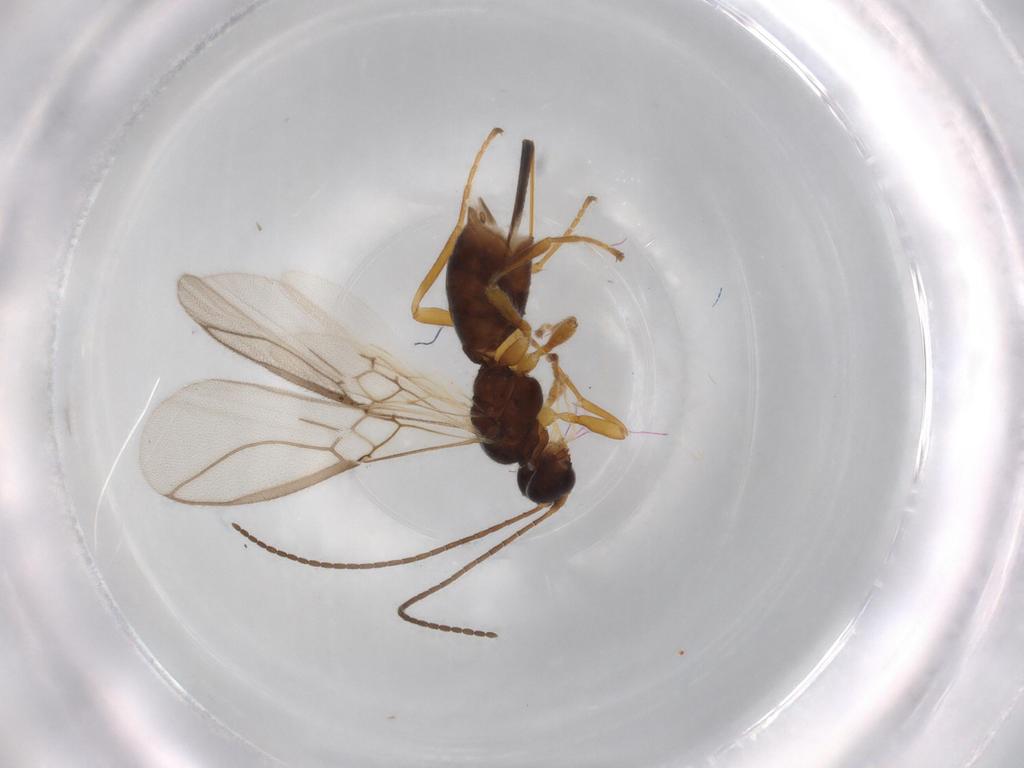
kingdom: Animalia
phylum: Arthropoda
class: Insecta
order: Hymenoptera
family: Braconidae
